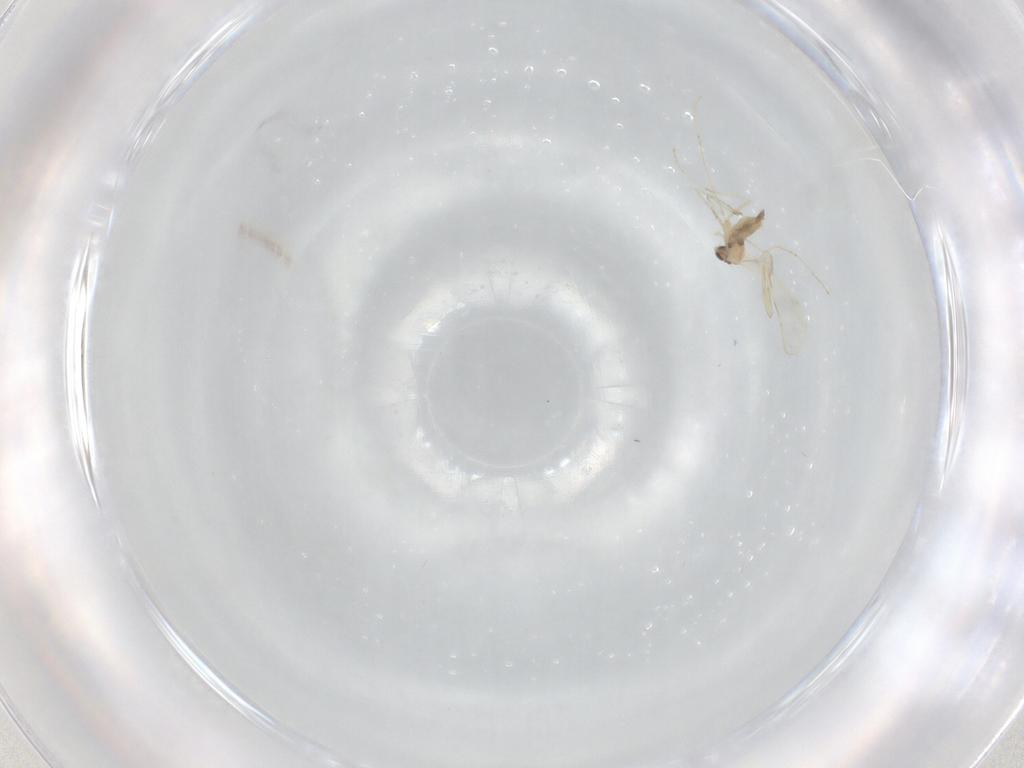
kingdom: Animalia
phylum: Arthropoda
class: Insecta
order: Diptera
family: Cecidomyiidae
